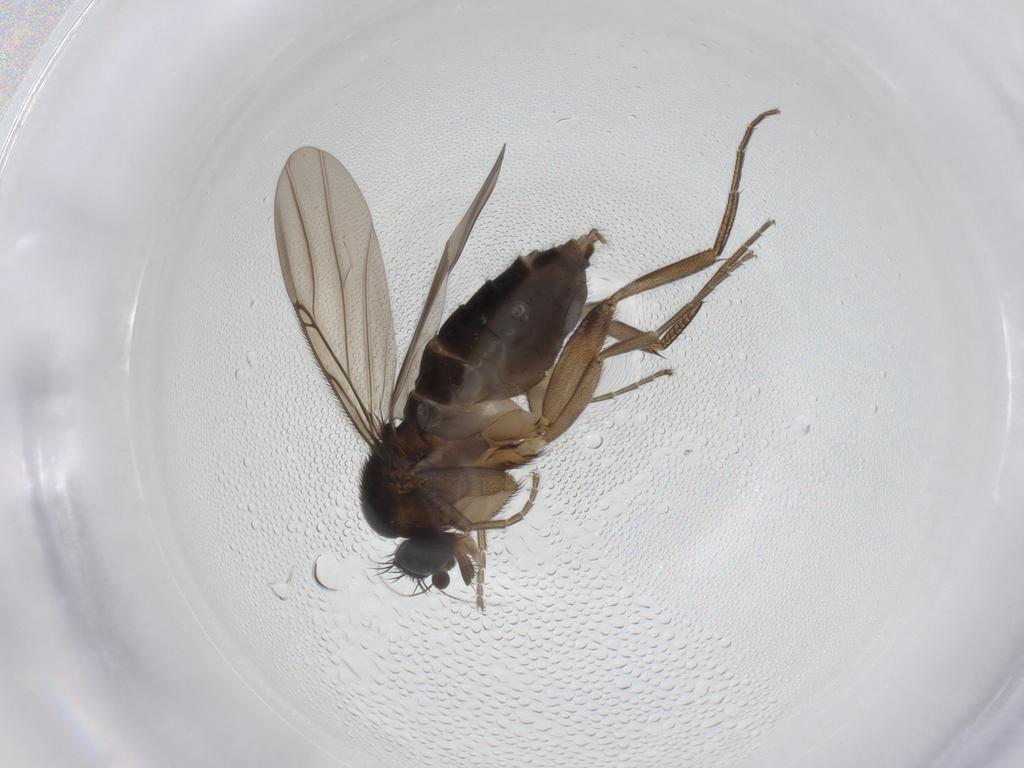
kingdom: Animalia
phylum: Arthropoda
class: Insecta
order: Diptera
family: Phoridae
